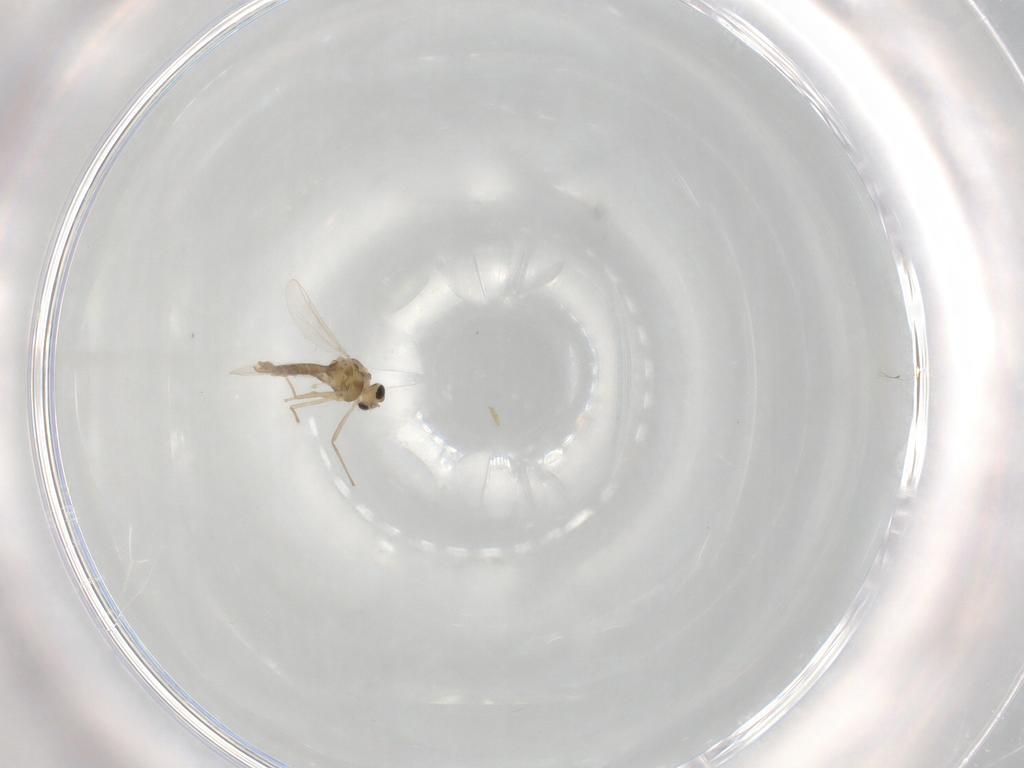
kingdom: Animalia
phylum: Arthropoda
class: Insecta
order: Diptera
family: Chironomidae
